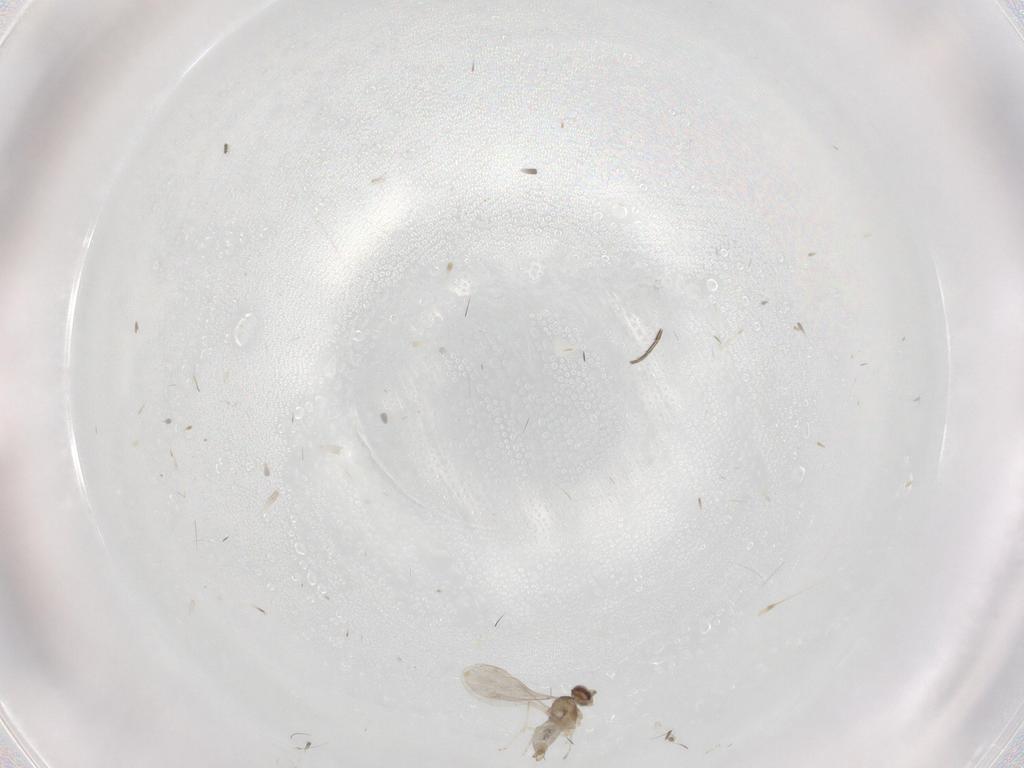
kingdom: Animalia
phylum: Arthropoda
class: Insecta
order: Diptera
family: Cecidomyiidae
